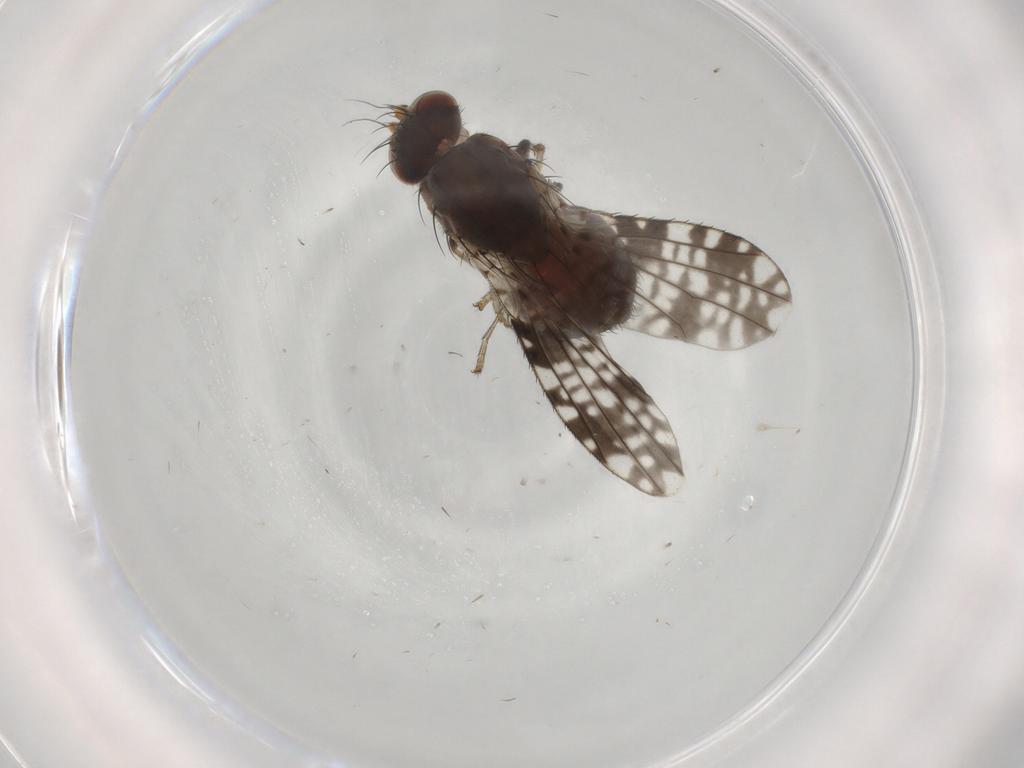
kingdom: Animalia
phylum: Arthropoda
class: Insecta
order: Diptera
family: Tephritidae
